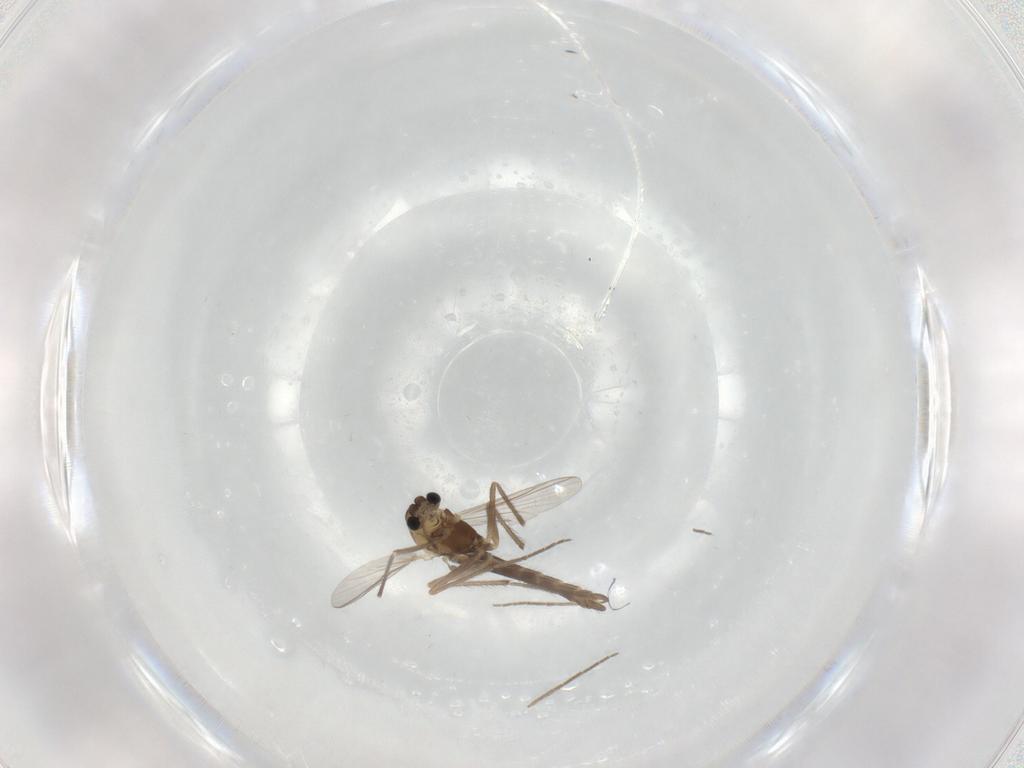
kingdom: Animalia
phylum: Arthropoda
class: Insecta
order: Diptera
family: Chironomidae
